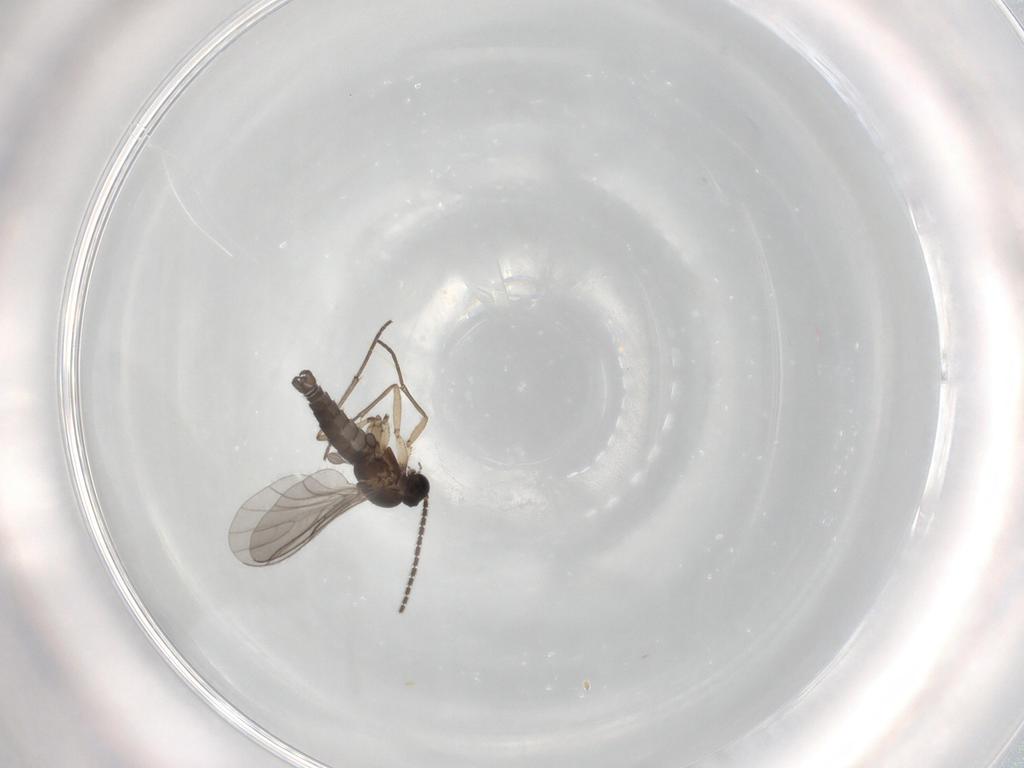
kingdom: Animalia
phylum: Arthropoda
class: Insecta
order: Diptera
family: Sciaridae
